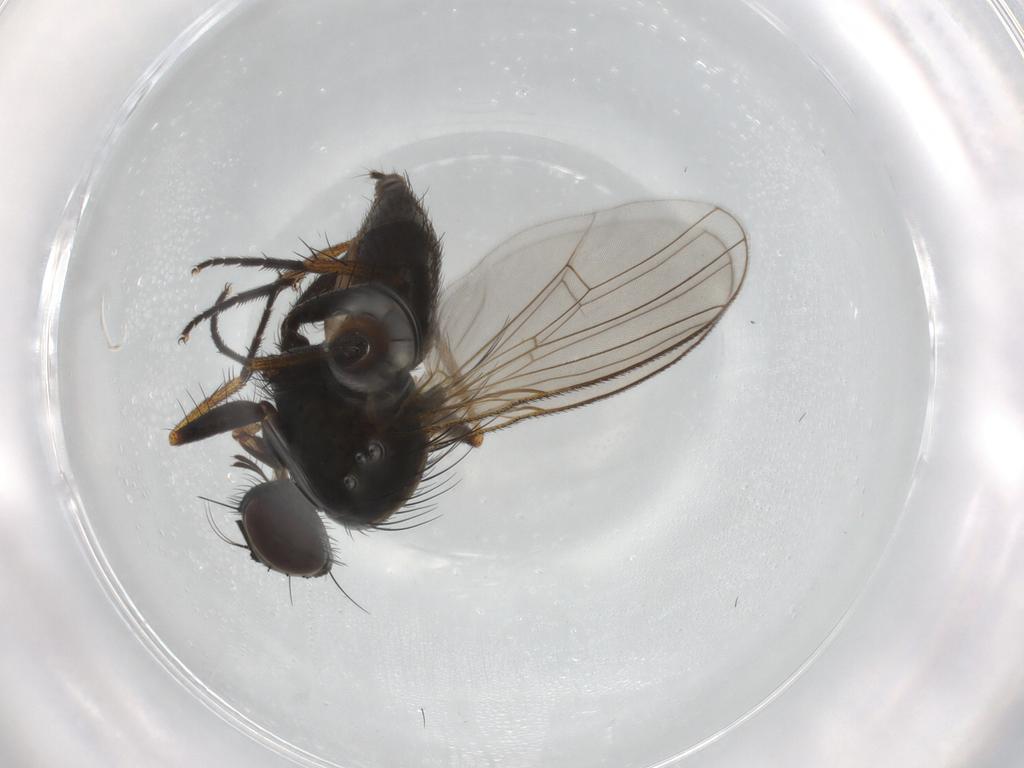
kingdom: Animalia
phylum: Arthropoda
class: Insecta
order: Diptera
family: Muscidae
